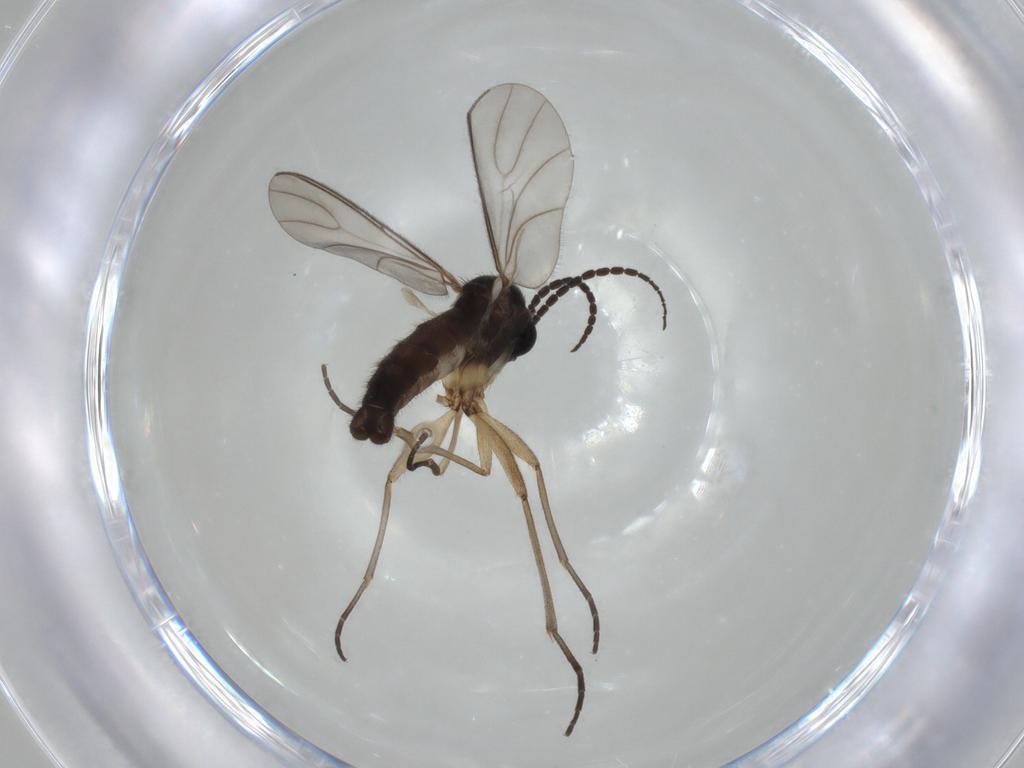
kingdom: Animalia
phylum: Arthropoda
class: Insecta
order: Diptera
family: Sciaridae
